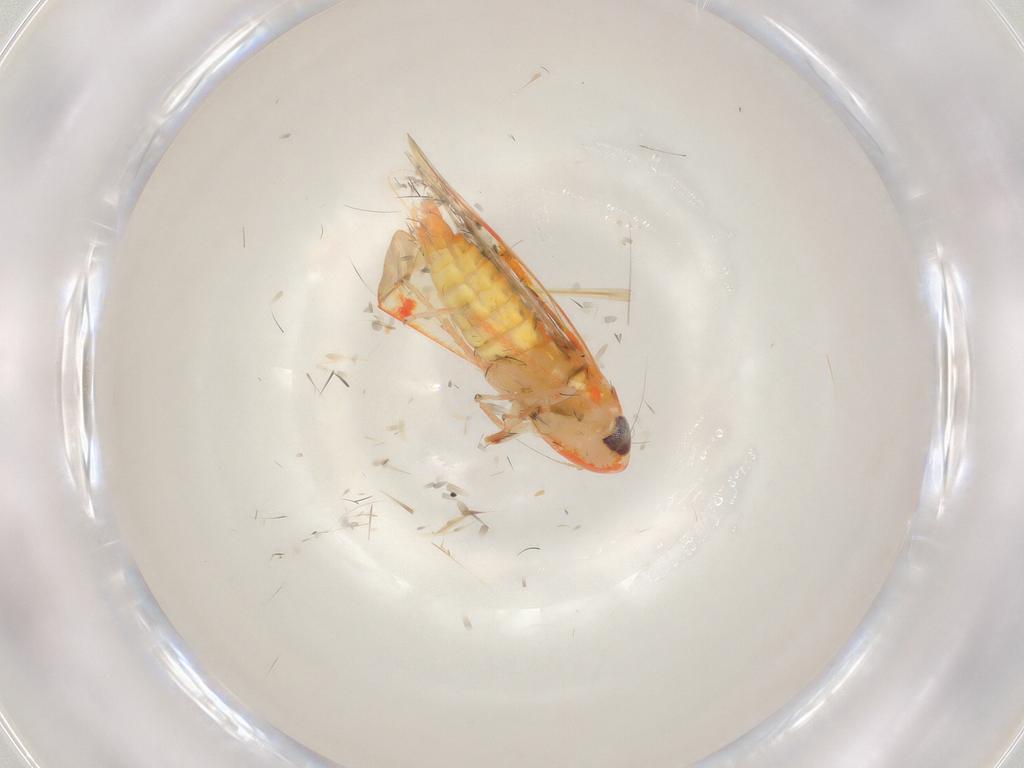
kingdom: Animalia
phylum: Arthropoda
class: Insecta
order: Hemiptera
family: Cicadellidae
